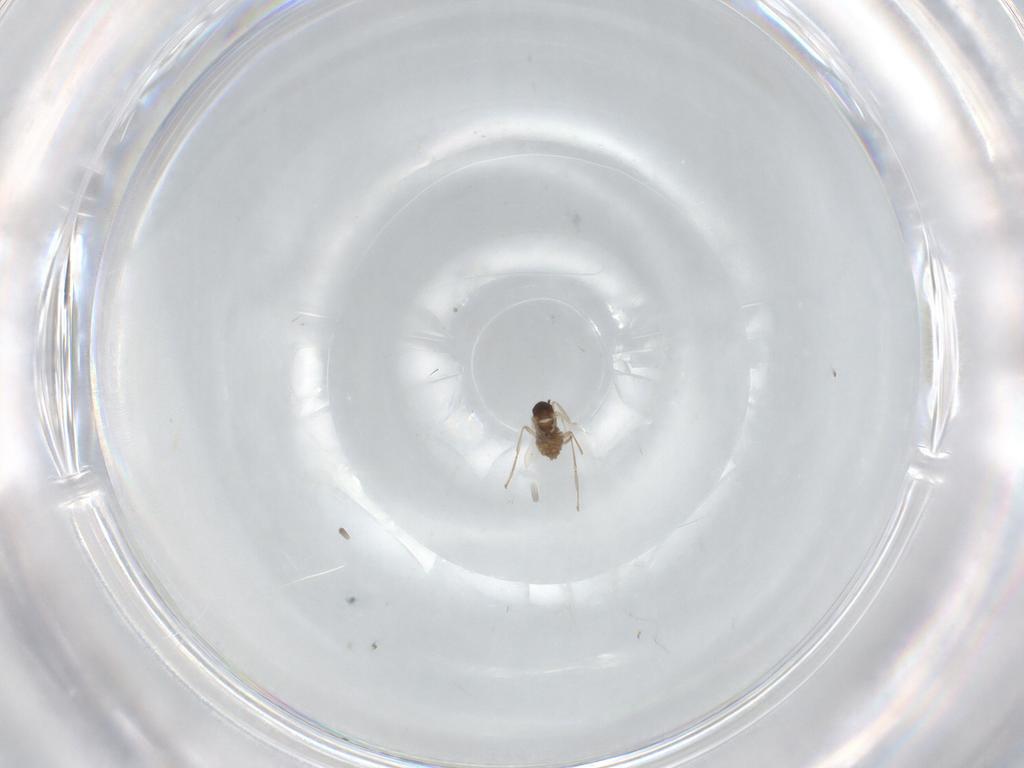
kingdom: Animalia
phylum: Arthropoda
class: Insecta
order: Diptera
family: Cecidomyiidae
